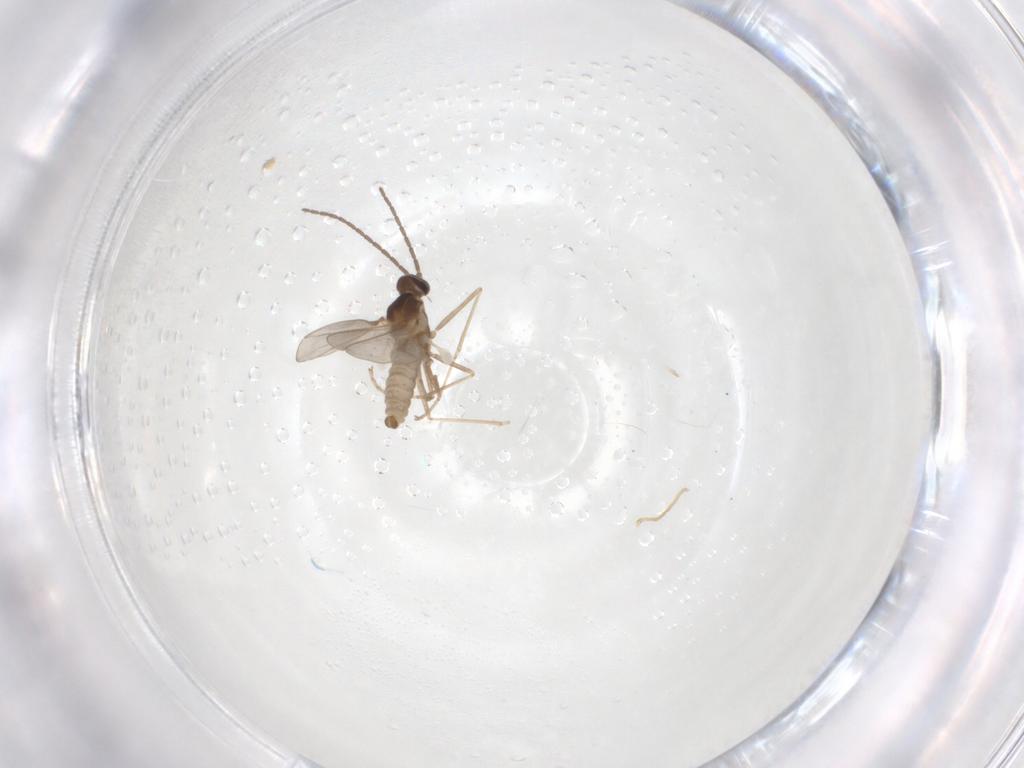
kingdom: Animalia
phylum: Arthropoda
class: Insecta
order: Diptera
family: Cecidomyiidae
